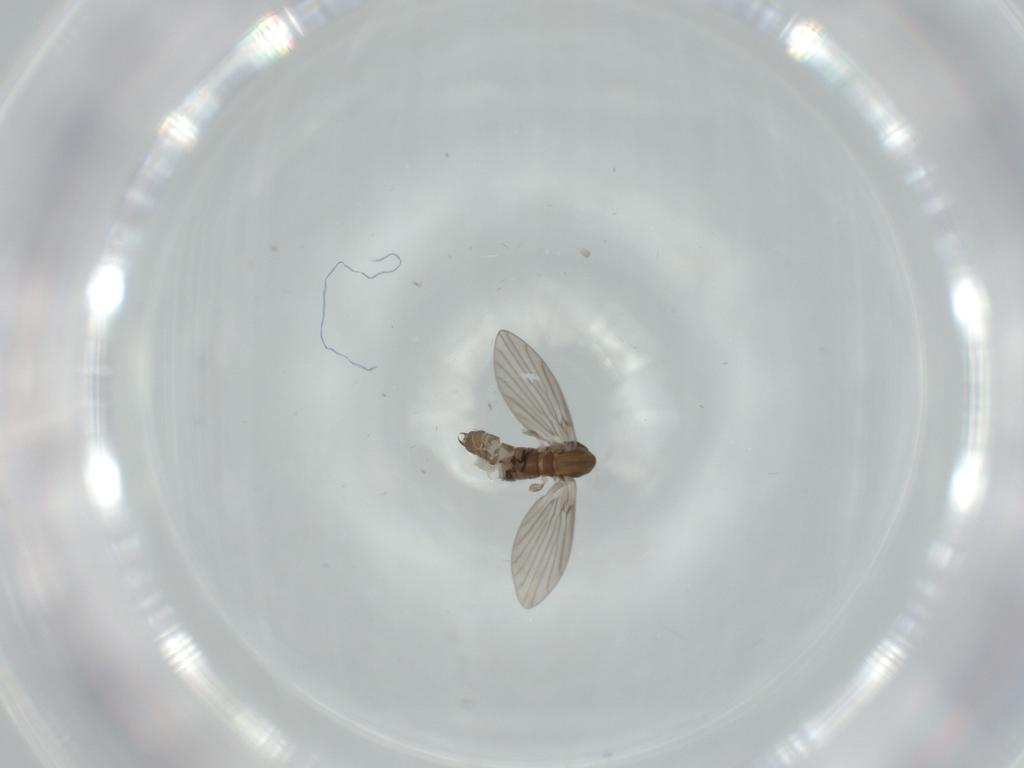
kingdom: Animalia
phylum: Arthropoda
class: Insecta
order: Diptera
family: Psychodidae
